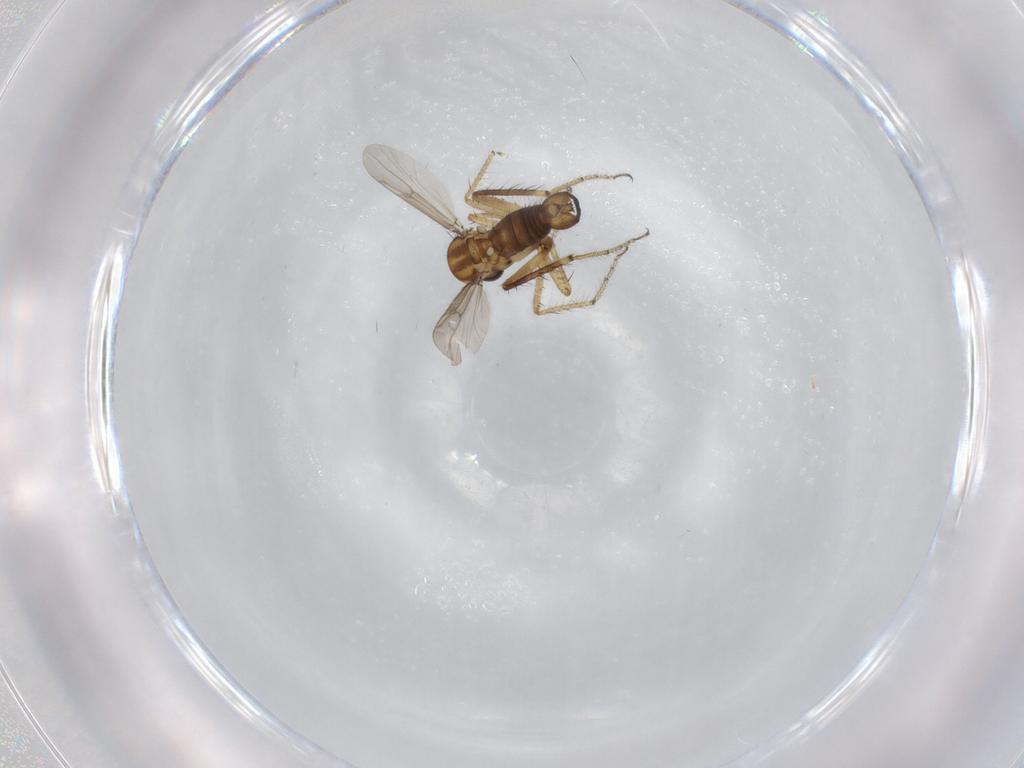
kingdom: Animalia
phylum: Arthropoda
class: Insecta
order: Diptera
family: Ceratopogonidae
